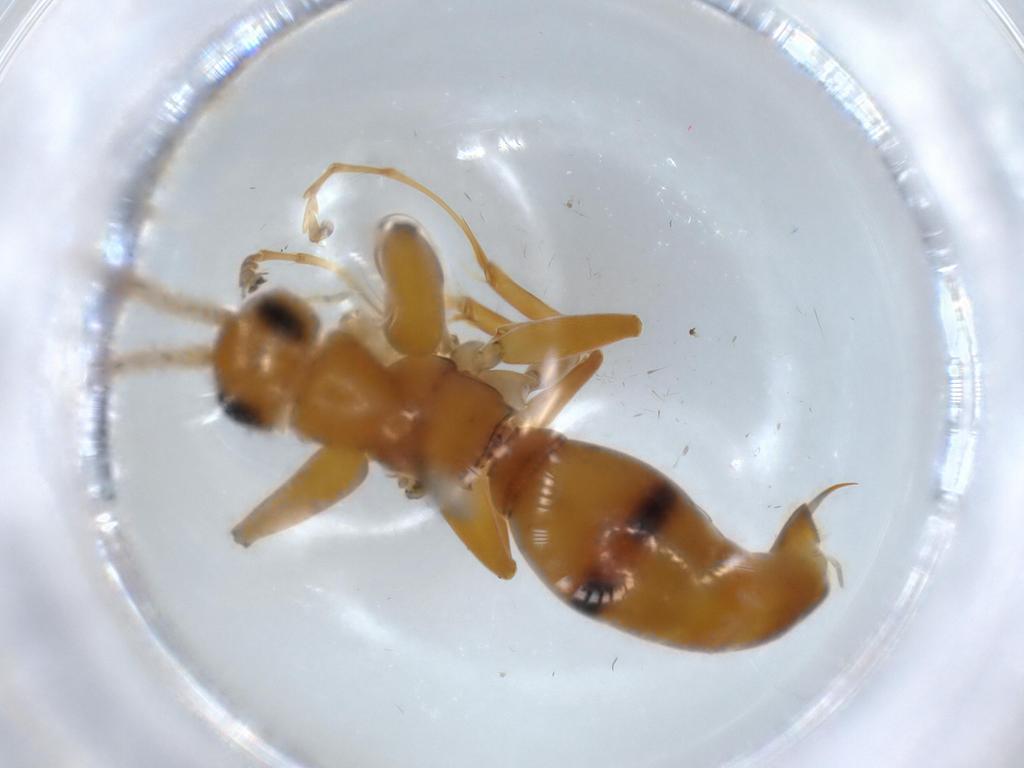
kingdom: Animalia
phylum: Arthropoda
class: Insecta
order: Hymenoptera
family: Rhopalosomatidae
